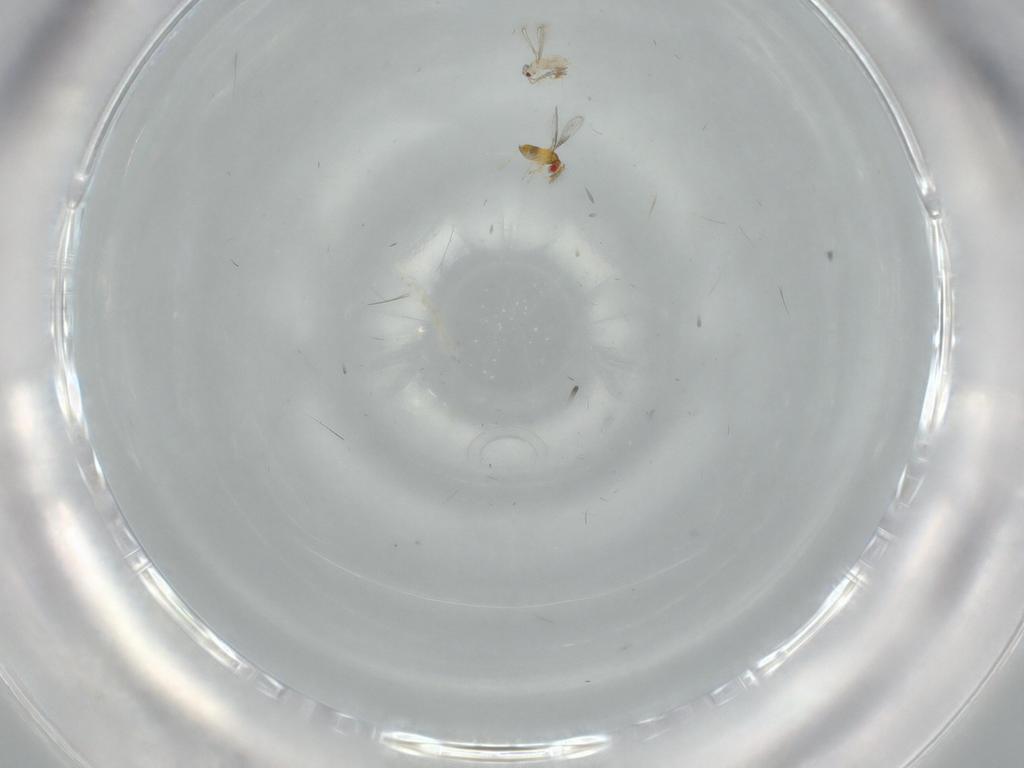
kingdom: Animalia
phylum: Arthropoda
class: Insecta
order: Hymenoptera
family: Trichogrammatidae
